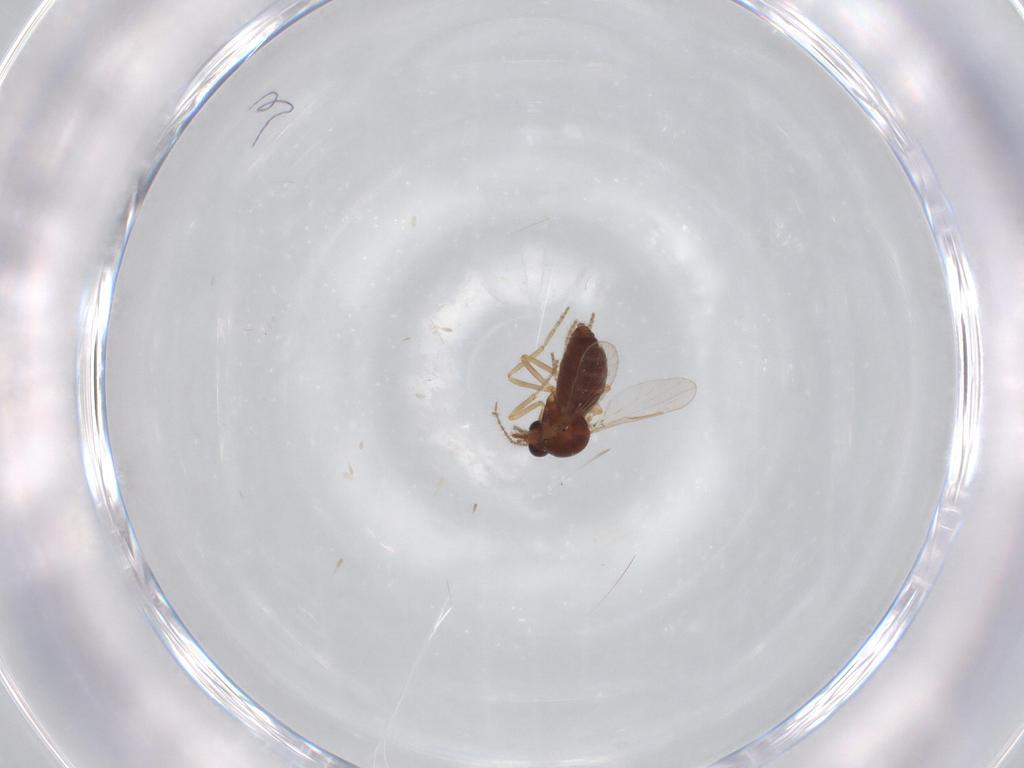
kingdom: Animalia
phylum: Arthropoda
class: Insecta
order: Diptera
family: Ceratopogonidae
